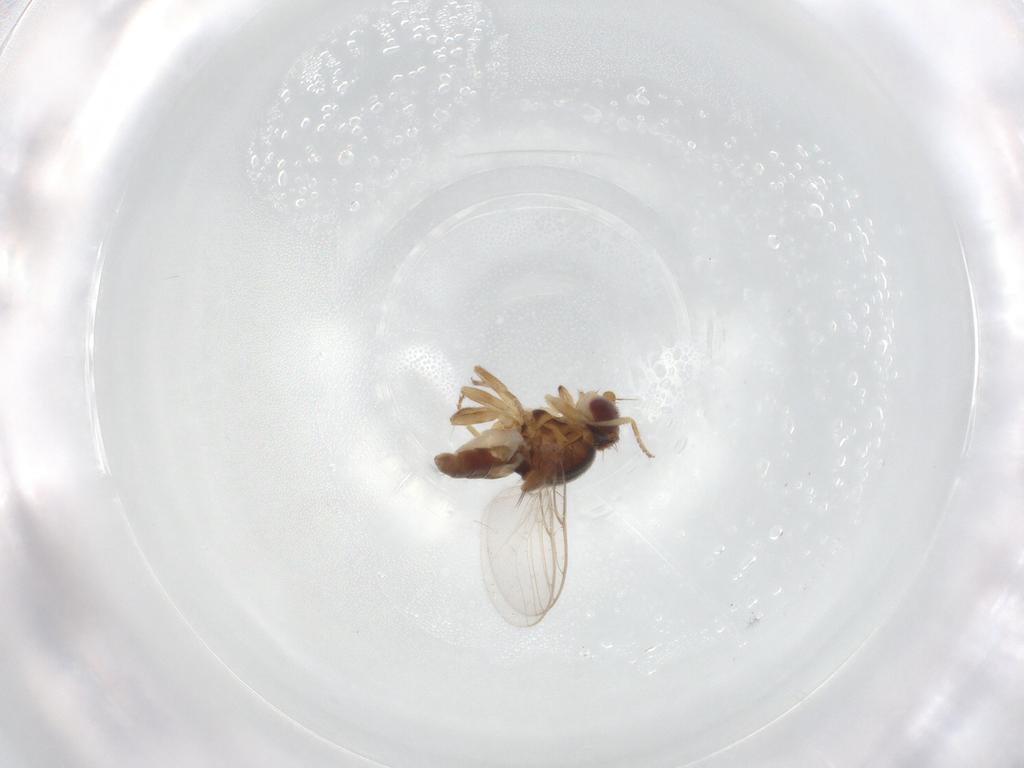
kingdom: Animalia
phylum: Arthropoda
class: Insecta
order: Diptera
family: Chloropidae
